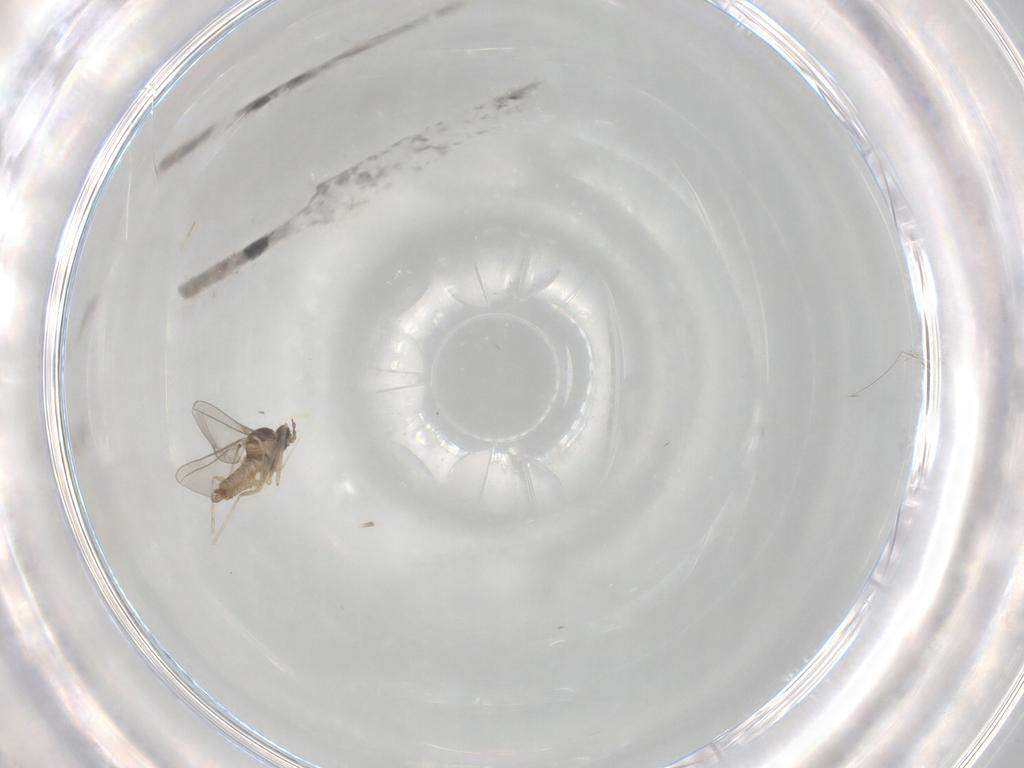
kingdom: Animalia
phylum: Arthropoda
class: Insecta
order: Diptera
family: Cecidomyiidae
